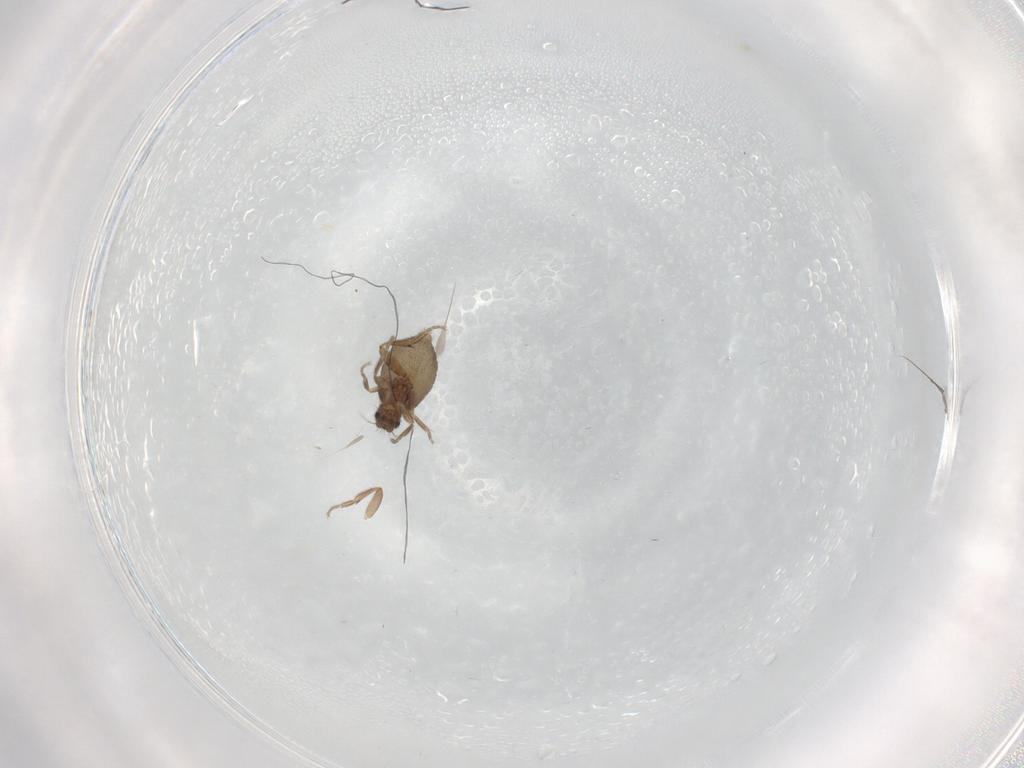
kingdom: Animalia
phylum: Arthropoda
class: Insecta
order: Diptera
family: Phoridae
